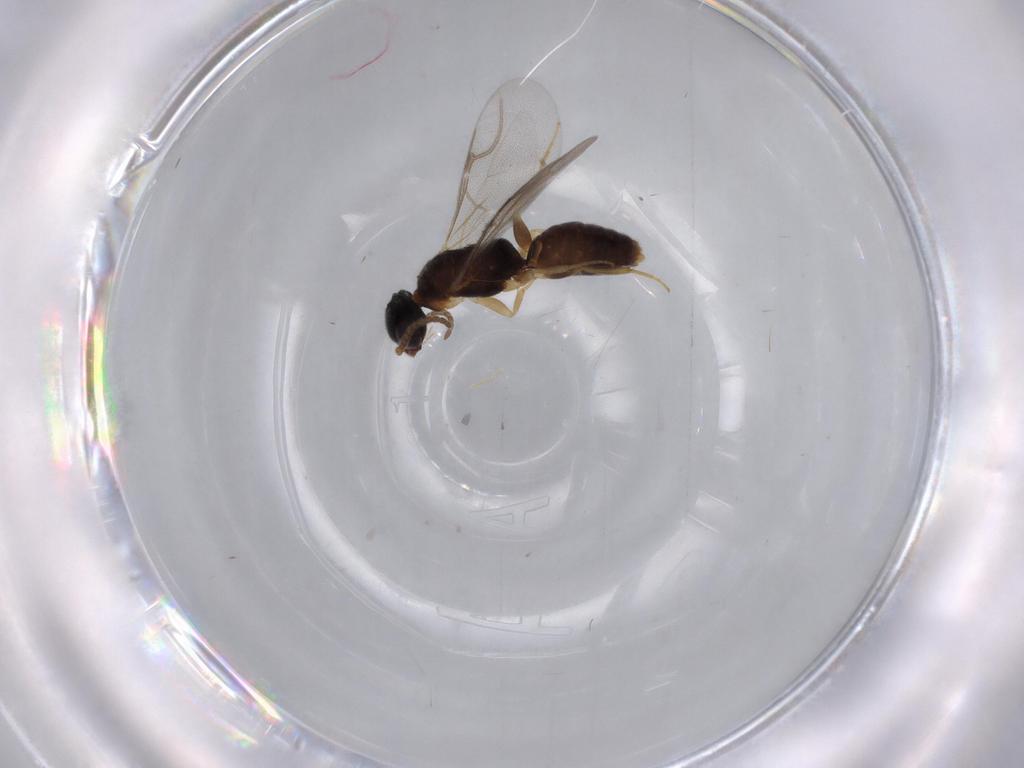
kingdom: Animalia
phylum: Arthropoda
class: Insecta
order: Hymenoptera
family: Bethylidae
